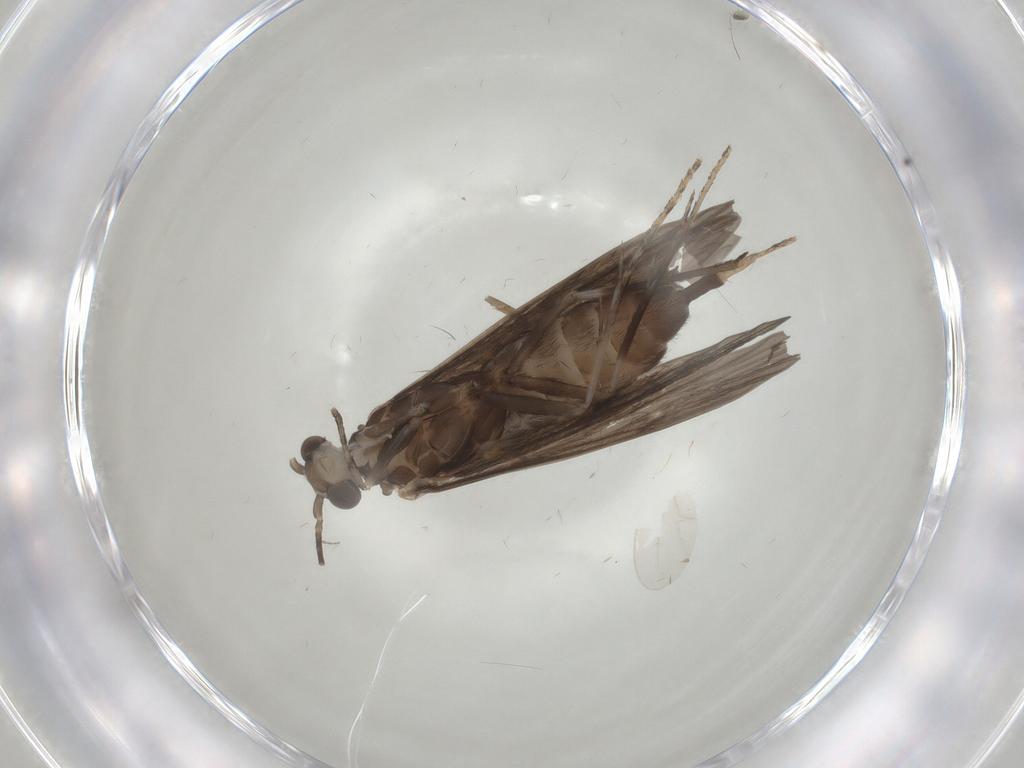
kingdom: Animalia
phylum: Arthropoda
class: Insecta
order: Trichoptera
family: Xiphocentronidae
